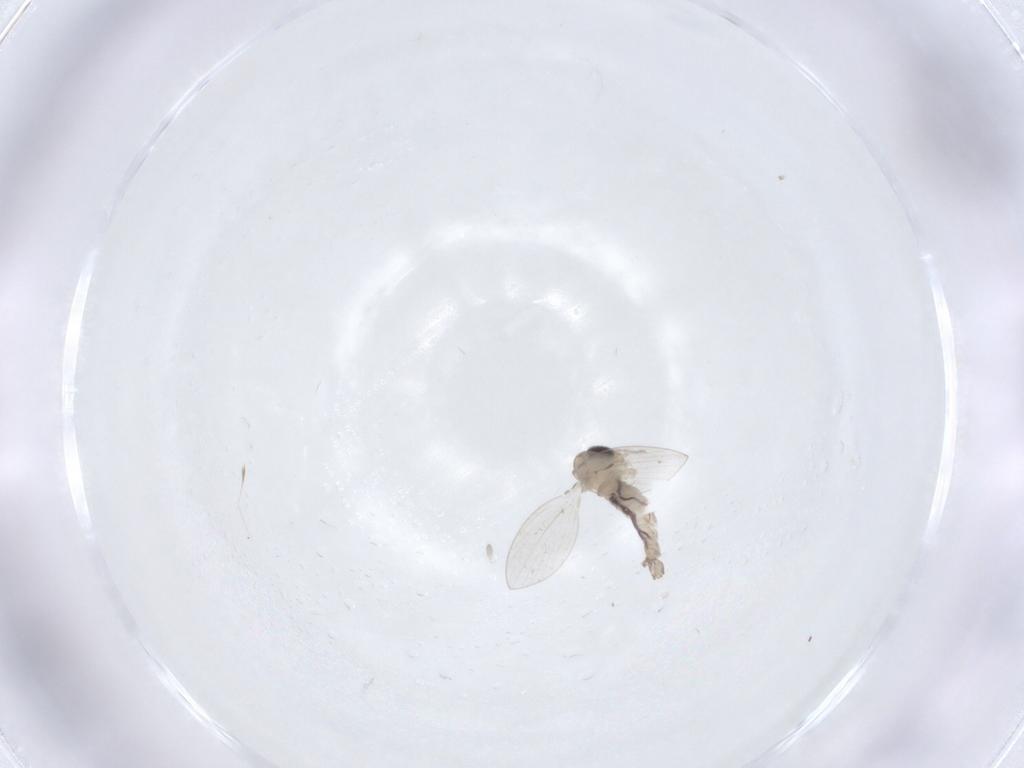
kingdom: Animalia
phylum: Arthropoda
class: Insecta
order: Diptera
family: Psychodidae
